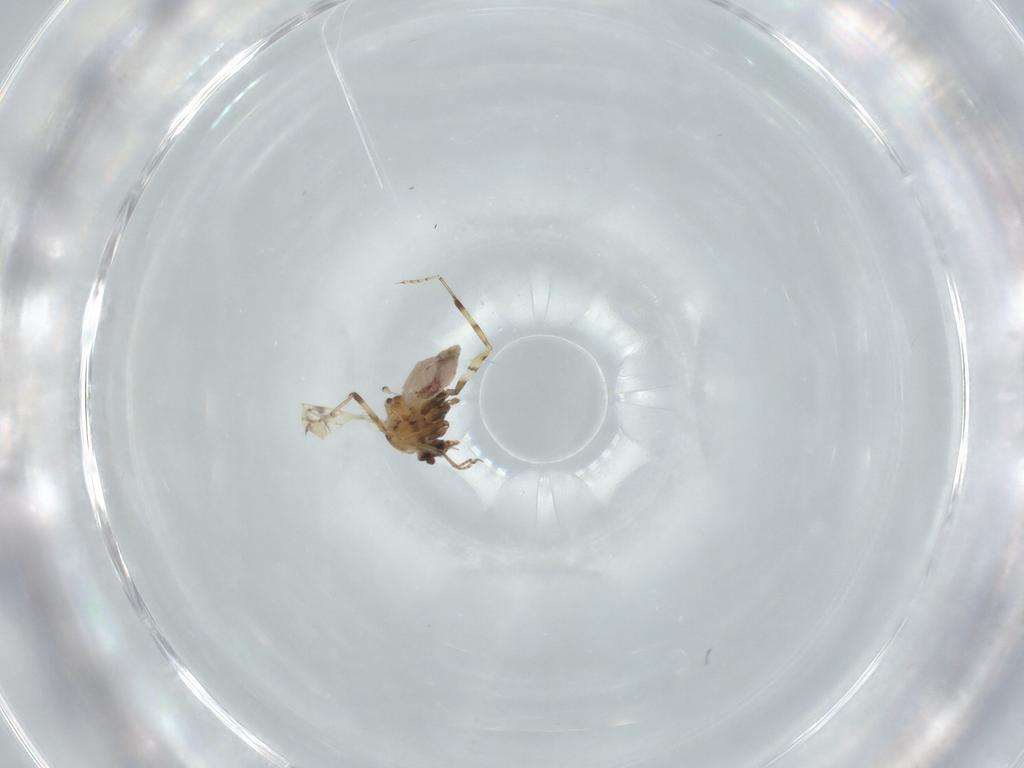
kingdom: Animalia
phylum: Arthropoda
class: Insecta
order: Diptera
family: Ceratopogonidae
